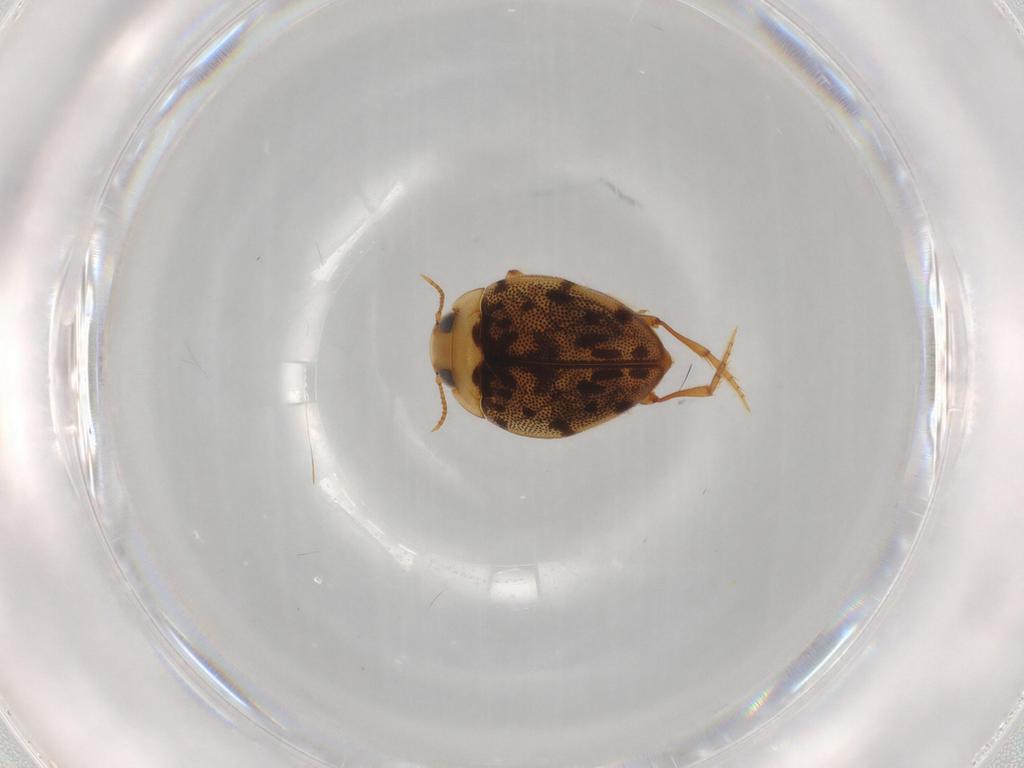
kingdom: Animalia
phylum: Arthropoda
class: Insecta
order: Coleoptera
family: Dytiscidae
